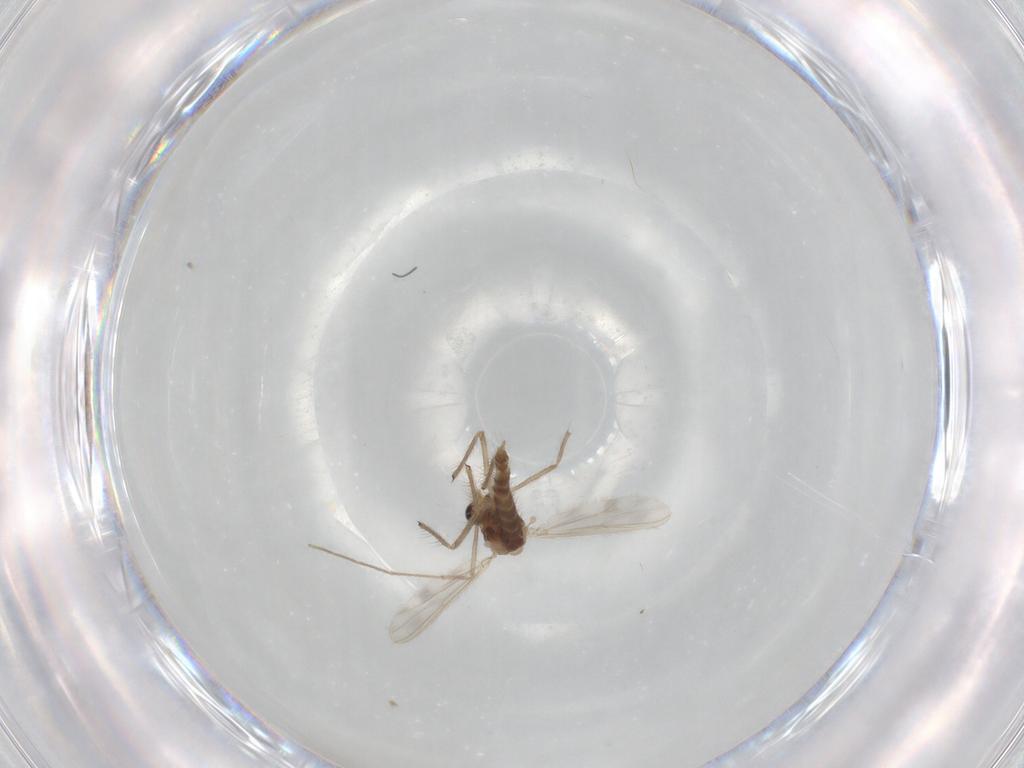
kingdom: Animalia
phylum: Arthropoda
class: Insecta
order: Diptera
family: Chironomidae
